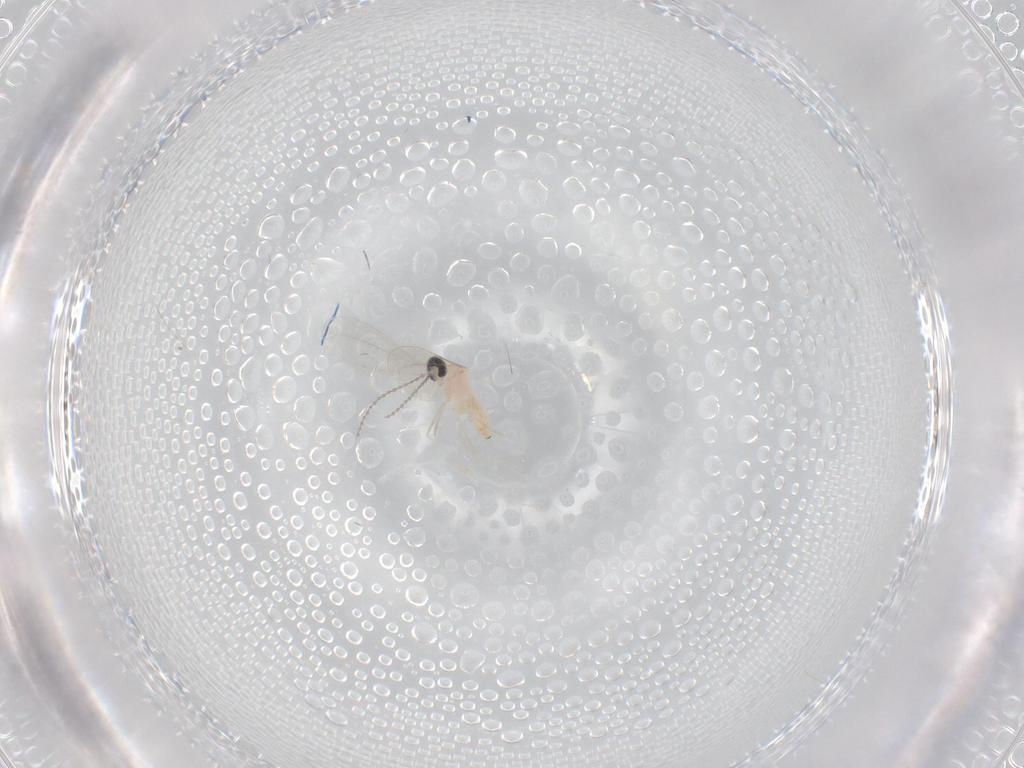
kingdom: Animalia
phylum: Arthropoda
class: Insecta
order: Diptera
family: Cecidomyiidae
